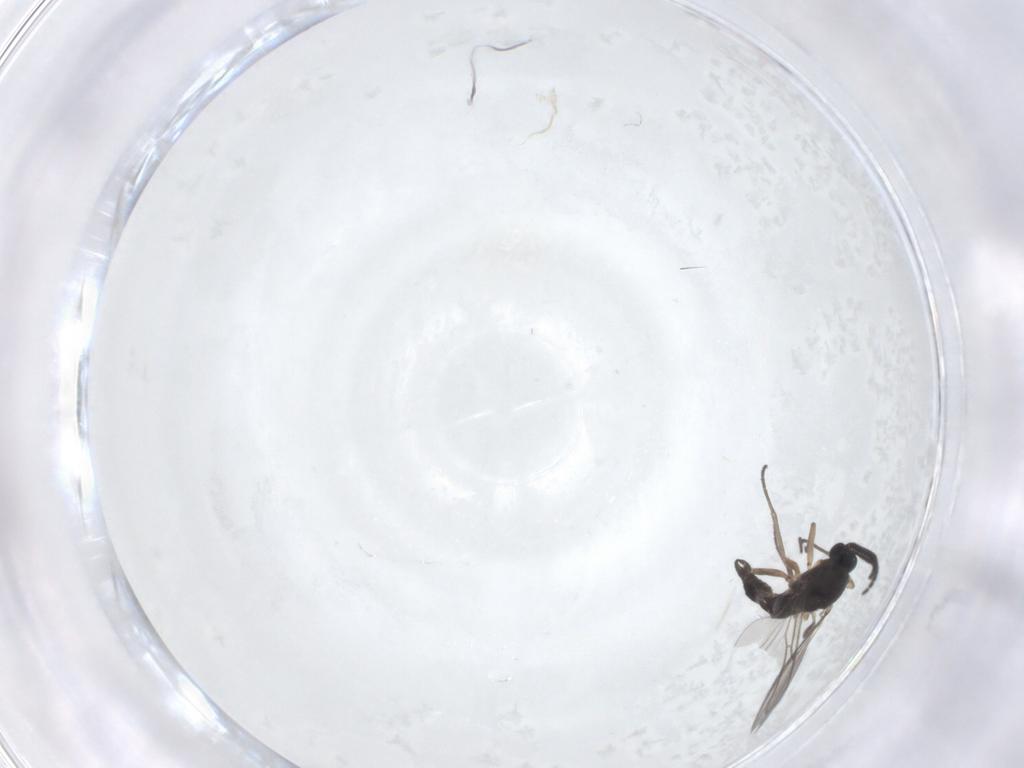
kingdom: Animalia
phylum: Arthropoda
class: Insecta
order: Diptera
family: Sciaridae
